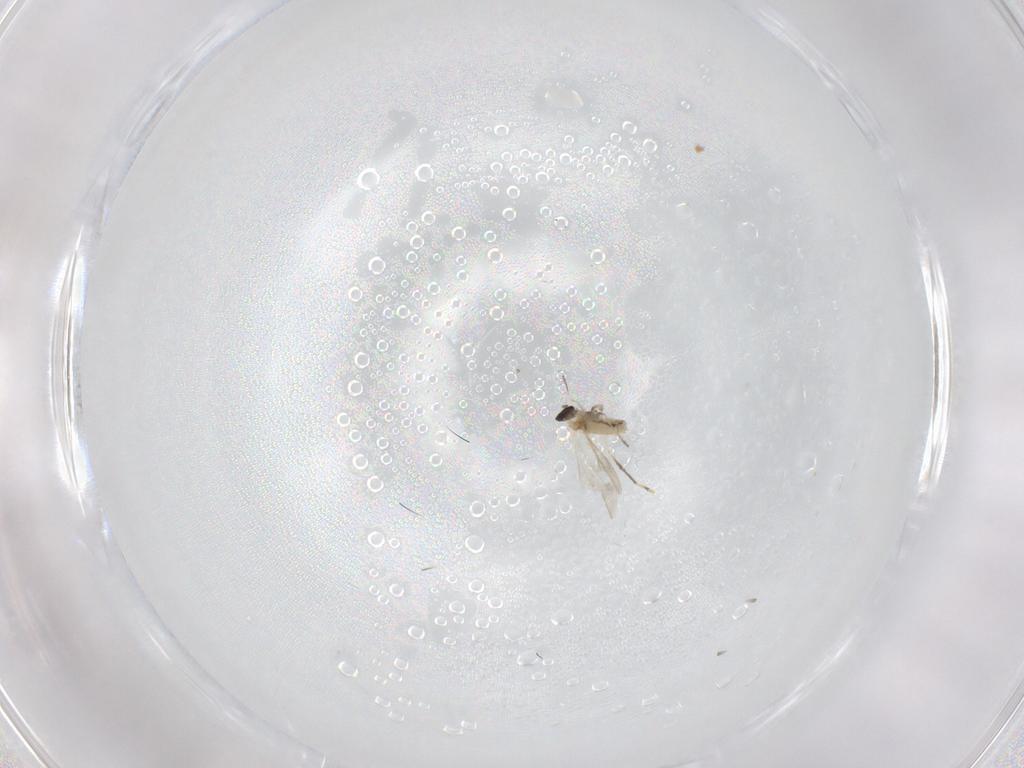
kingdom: Animalia
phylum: Arthropoda
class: Insecta
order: Diptera
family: Cecidomyiidae
